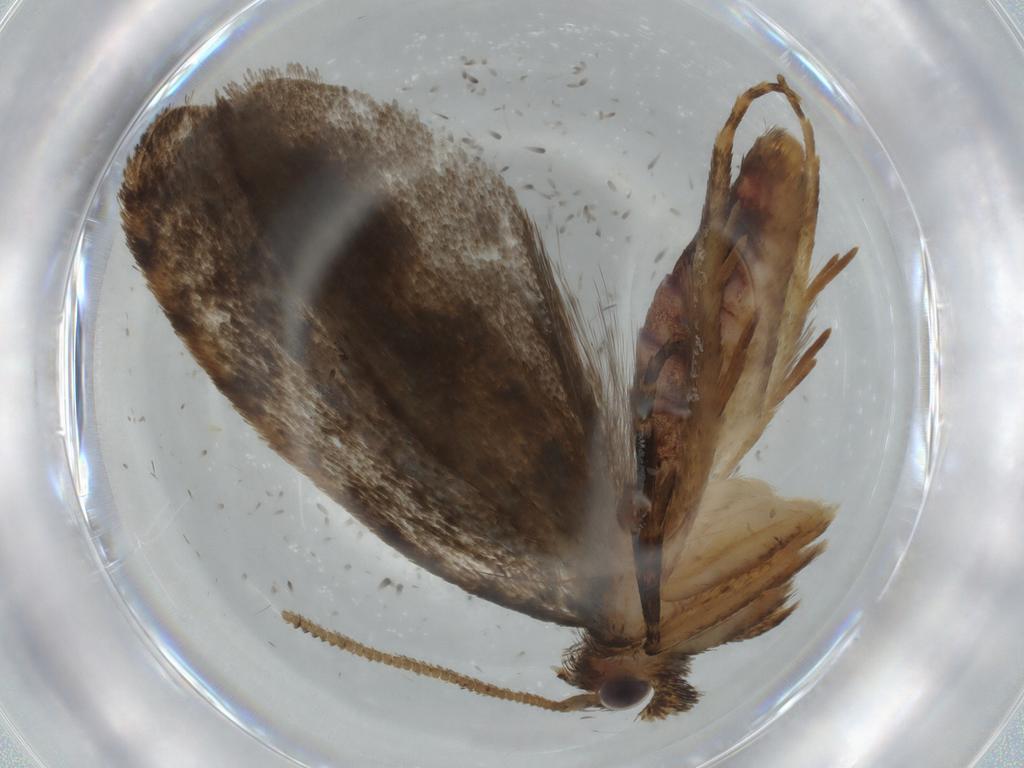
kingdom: Animalia
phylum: Arthropoda
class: Insecta
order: Lepidoptera
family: Tineidae
